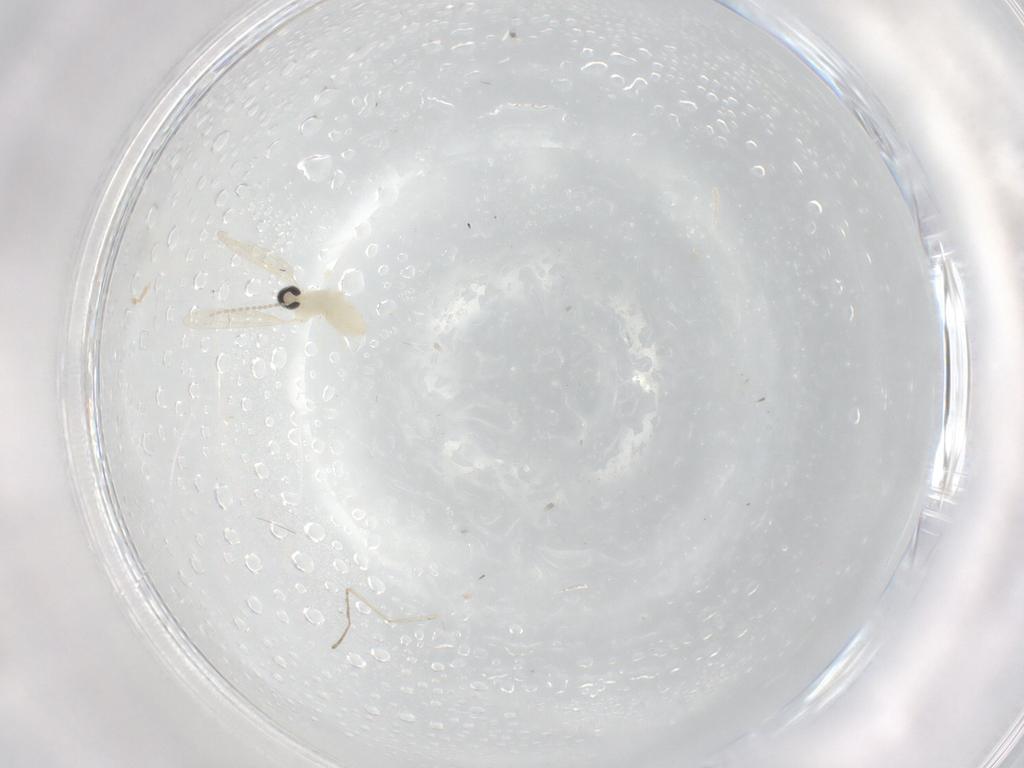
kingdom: Animalia
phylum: Arthropoda
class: Insecta
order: Diptera
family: Cecidomyiidae
